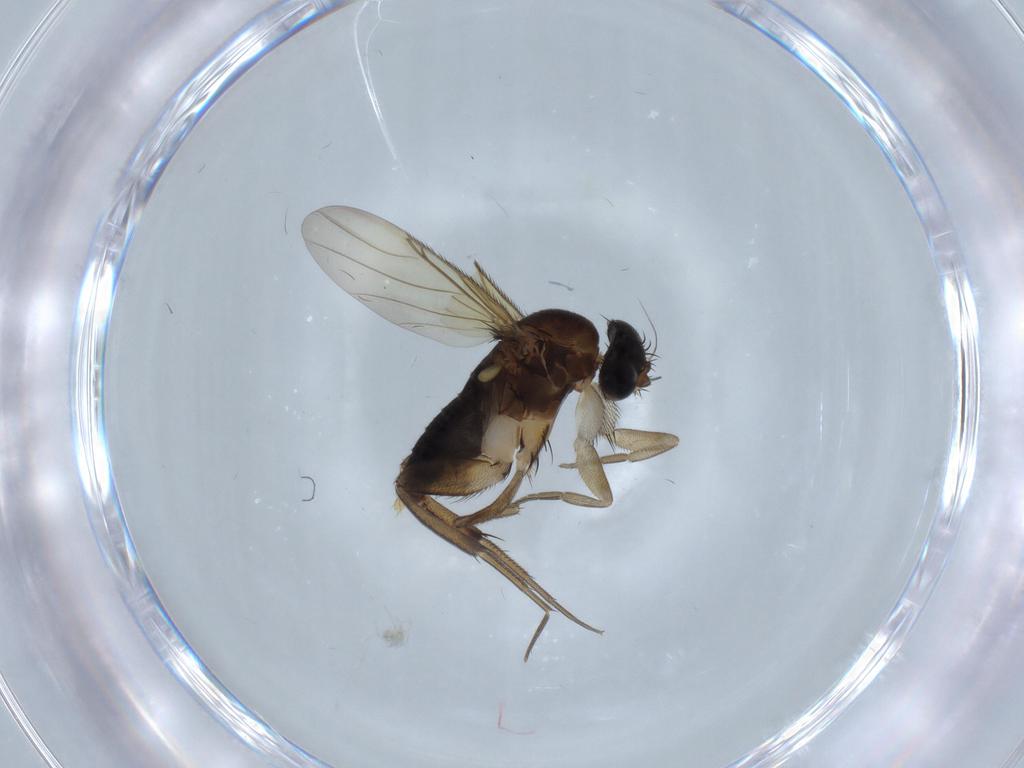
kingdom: Animalia
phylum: Arthropoda
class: Insecta
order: Diptera
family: Phoridae
